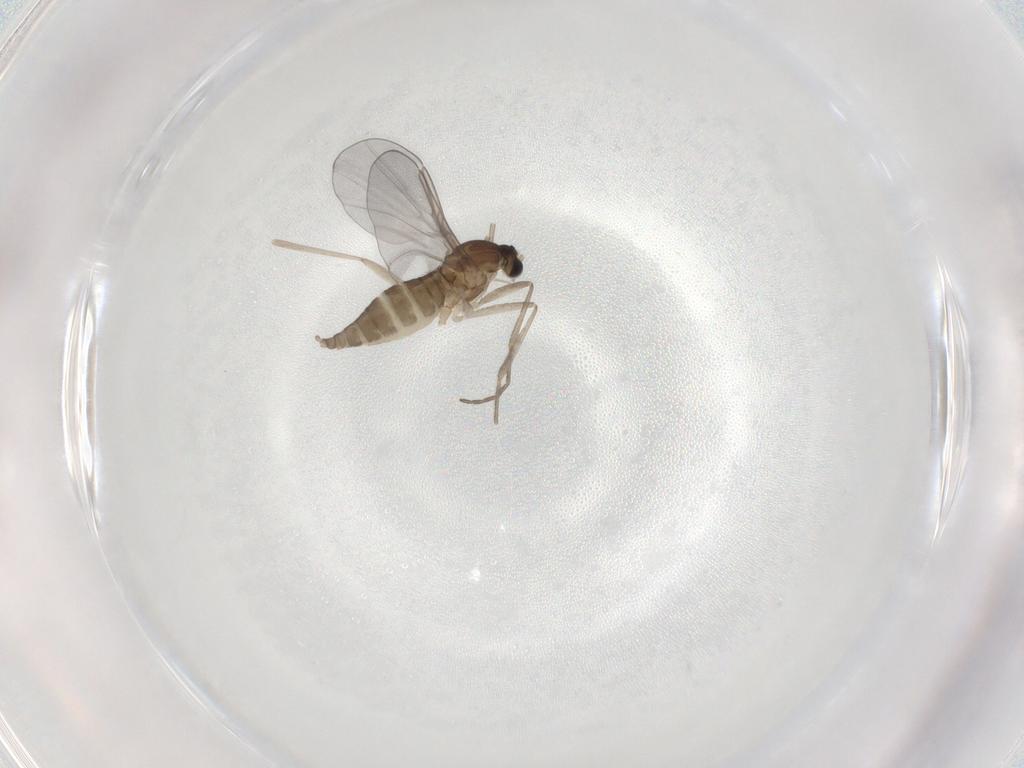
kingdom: Animalia
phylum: Arthropoda
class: Insecta
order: Diptera
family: Cecidomyiidae
